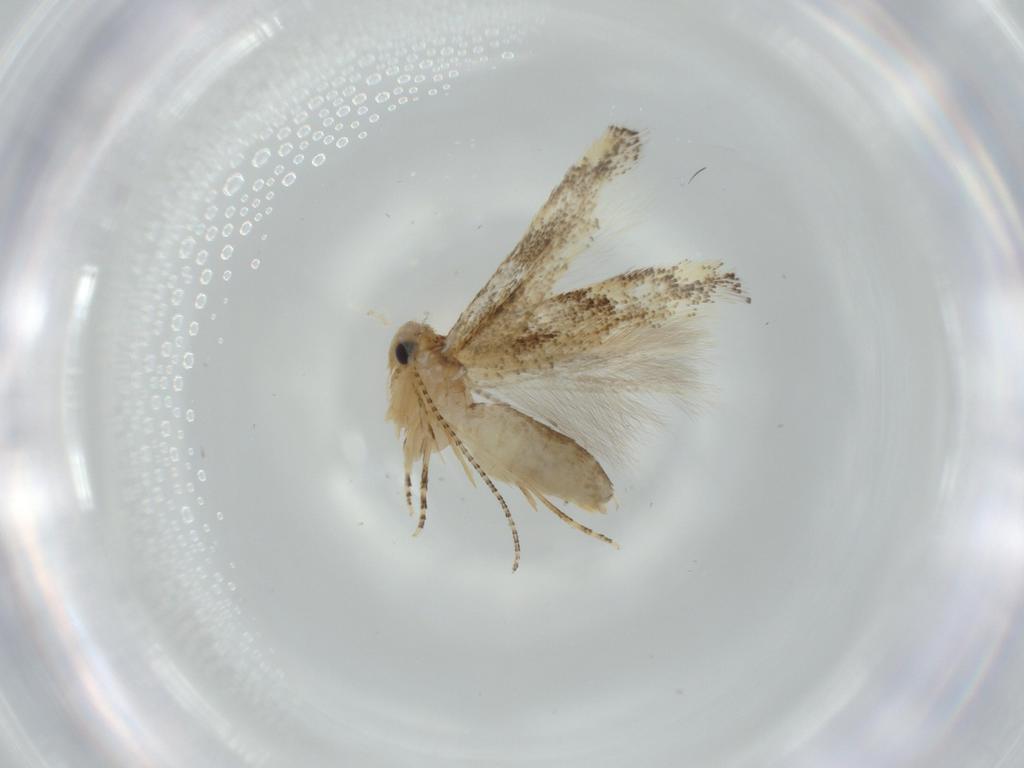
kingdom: Animalia
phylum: Arthropoda
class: Insecta
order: Lepidoptera
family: Bucculatricidae
